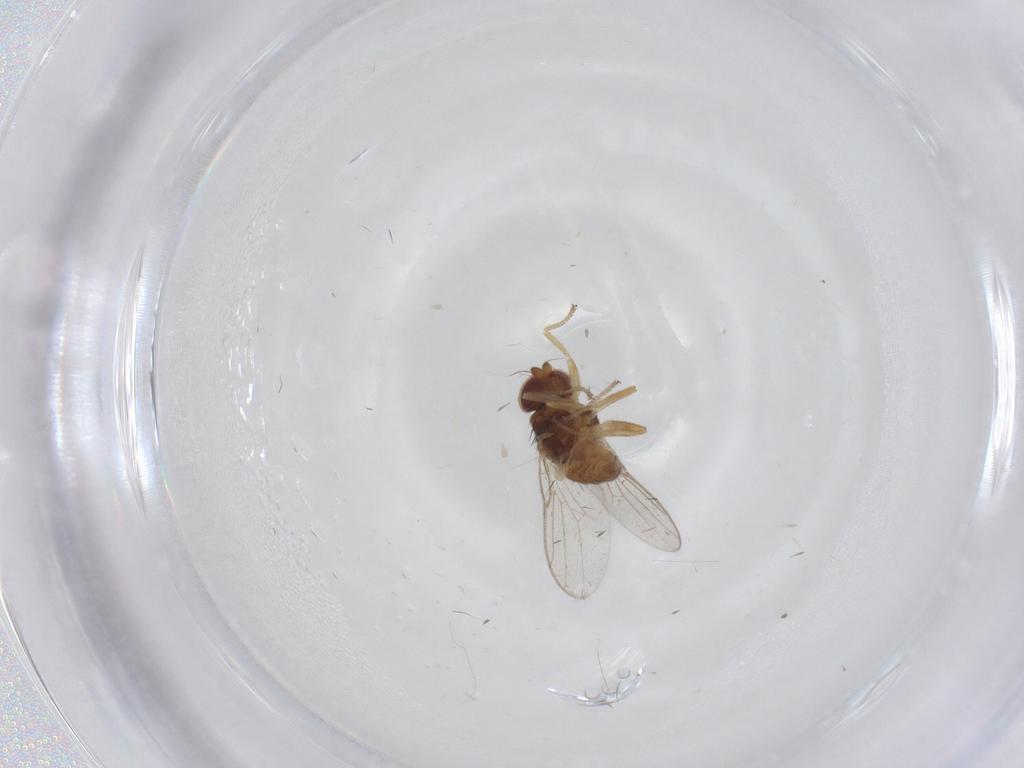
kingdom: Animalia
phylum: Arthropoda
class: Insecta
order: Diptera
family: Chloropidae
